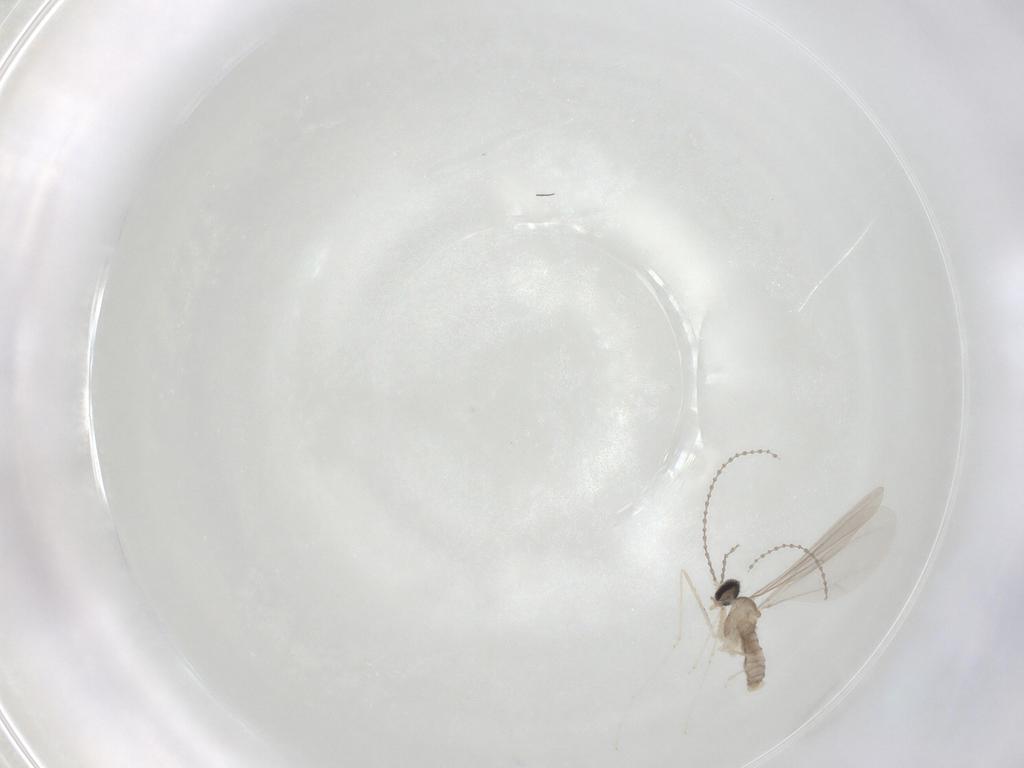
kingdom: Animalia
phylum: Arthropoda
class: Insecta
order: Diptera
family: Cecidomyiidae
